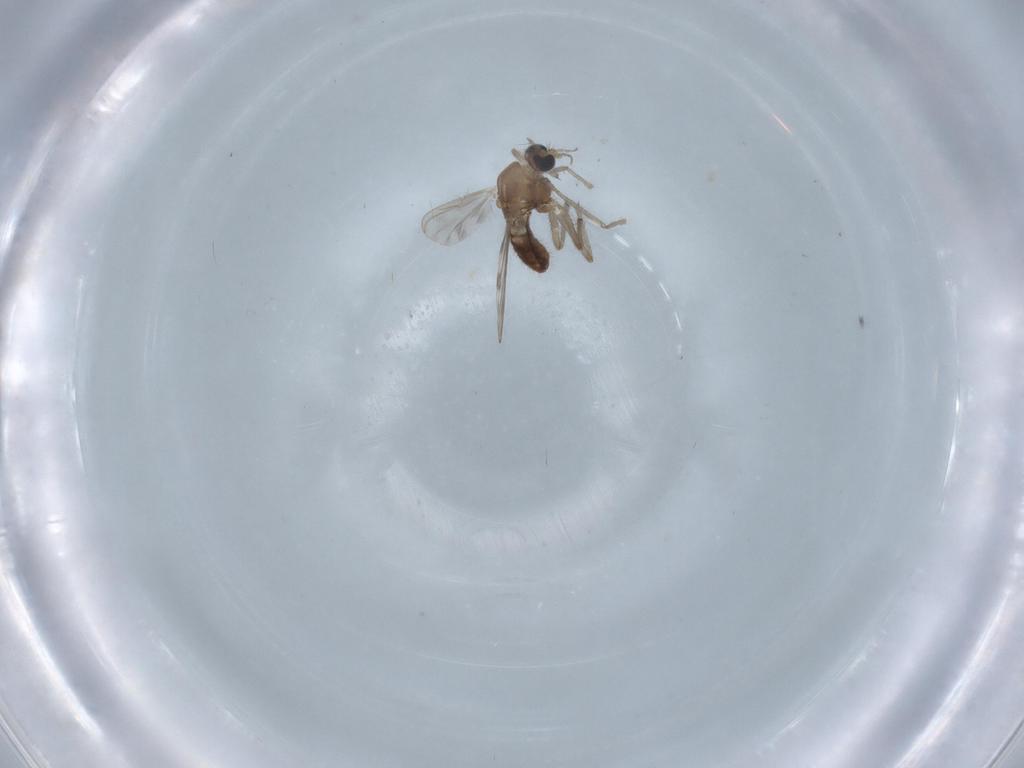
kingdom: Animalia
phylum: Arthropoda
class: Insecta
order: Diptera
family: Chironomidae
